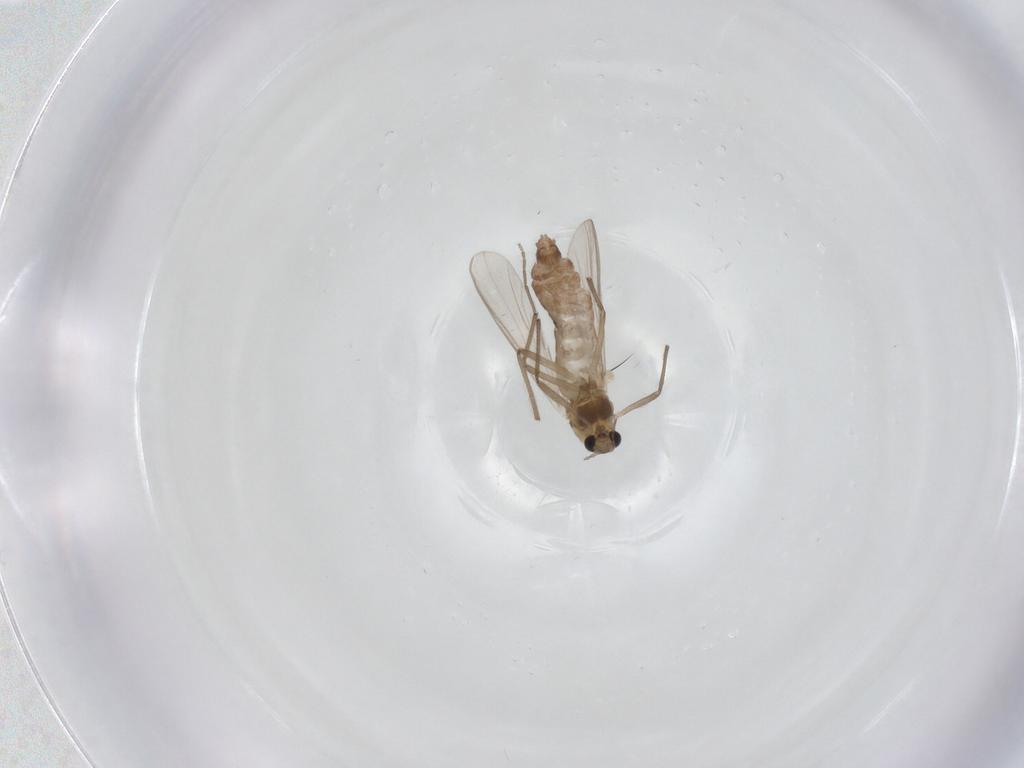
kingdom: Animalia
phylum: Arthropoda
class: Insecta
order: Diptera
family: Chironomidae
